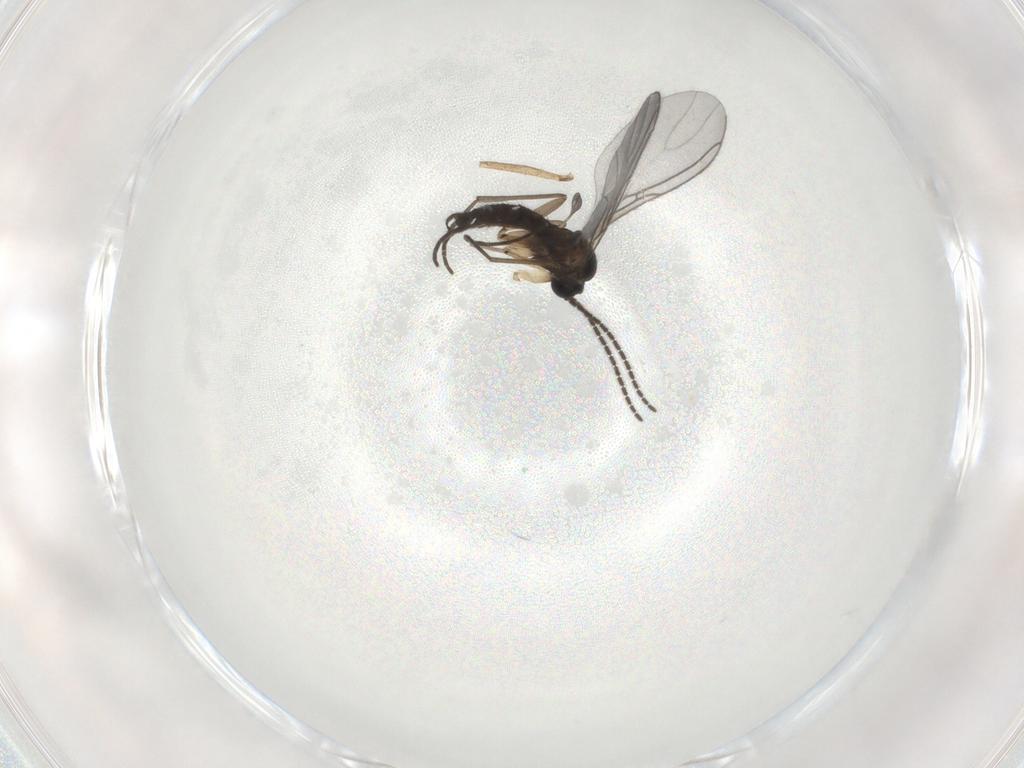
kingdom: Animalia
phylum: Arthropoda
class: Insecta
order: Diptera
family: Sciaridae
